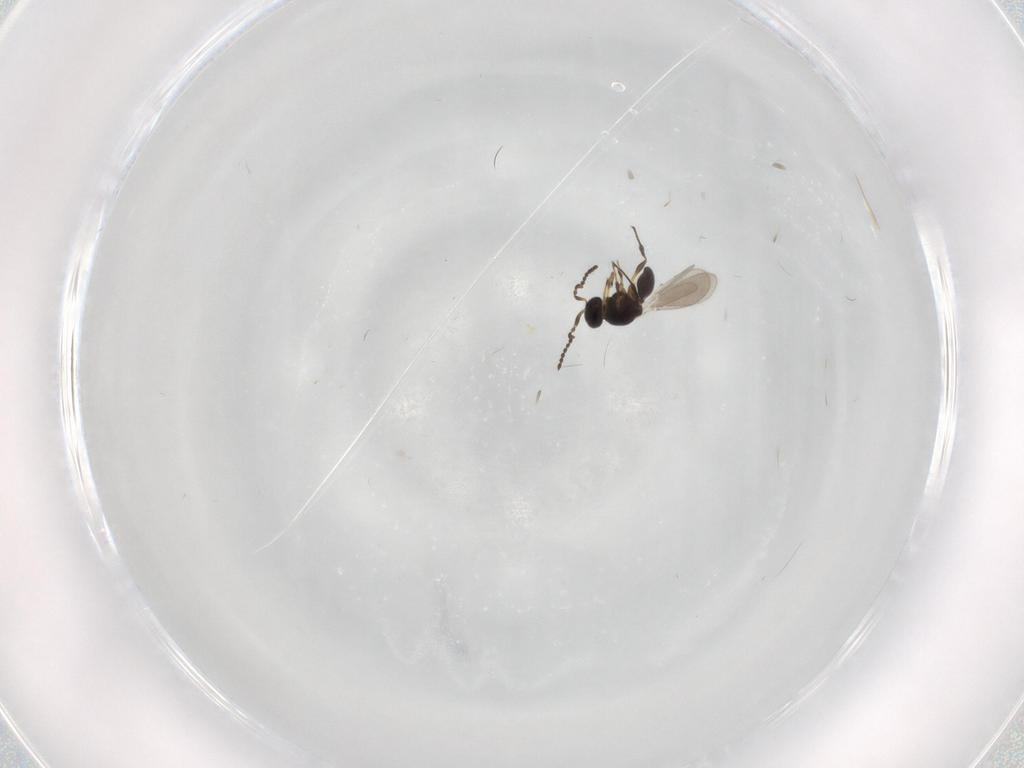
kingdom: Animalia
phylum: Arthropoda
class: Insecta
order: Hymenoptera
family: Platygastridae
